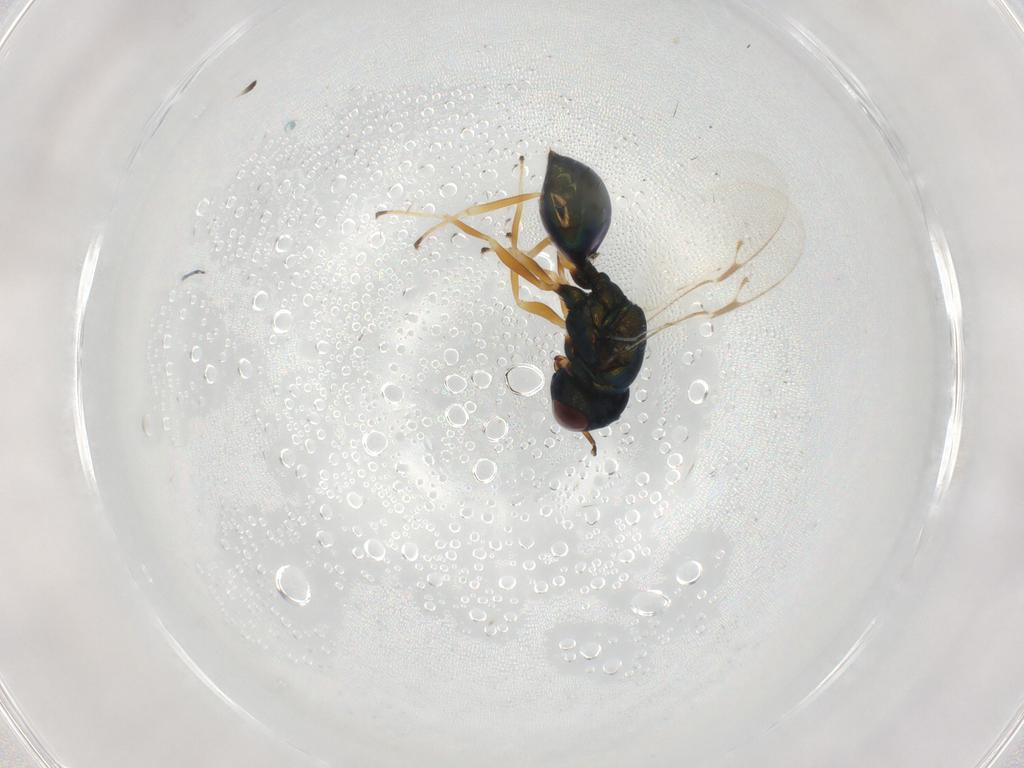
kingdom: Animalia
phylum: Arthropoda
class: Insecta
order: Hymenoptera
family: Pteromalidae
